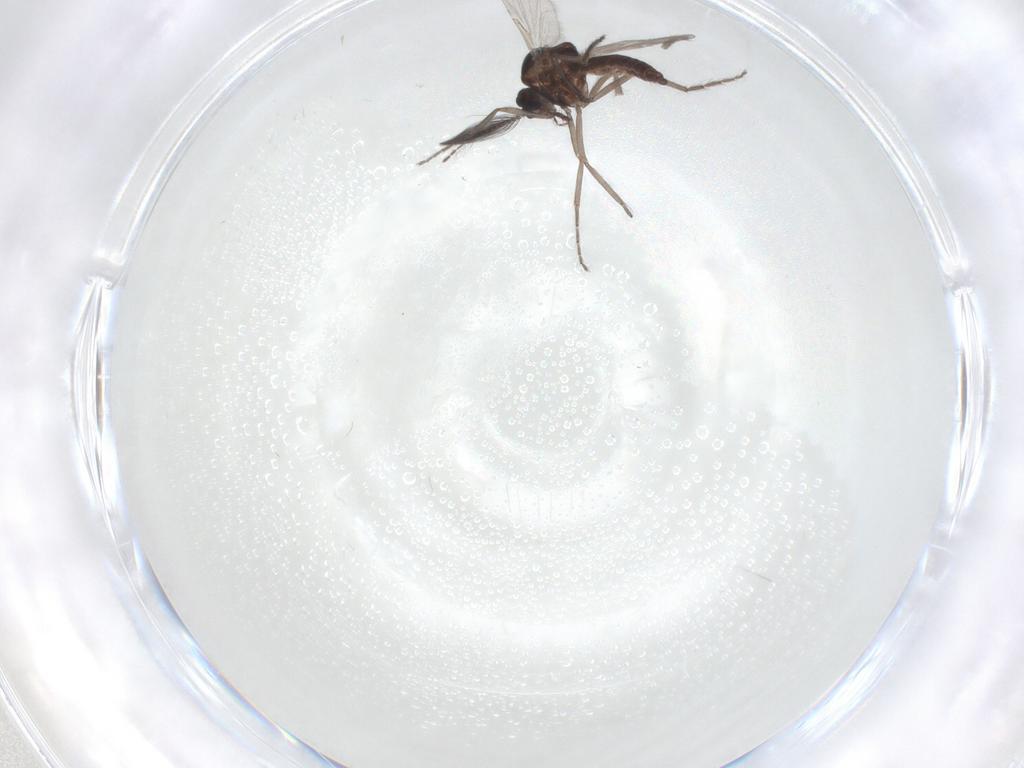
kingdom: Animalia
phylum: Arthropoda
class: Insecta
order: Diptera
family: Ceratopogonidae
